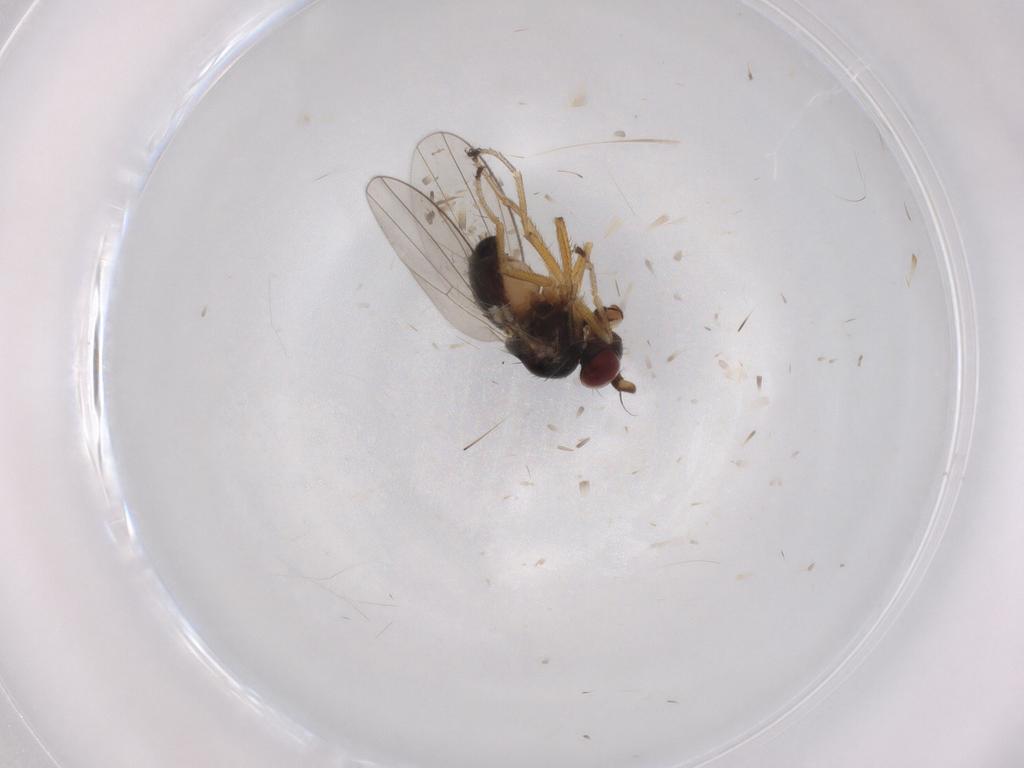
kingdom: Animalia
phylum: Arthropoda
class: Insecta
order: Diptera
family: Ephydridae
